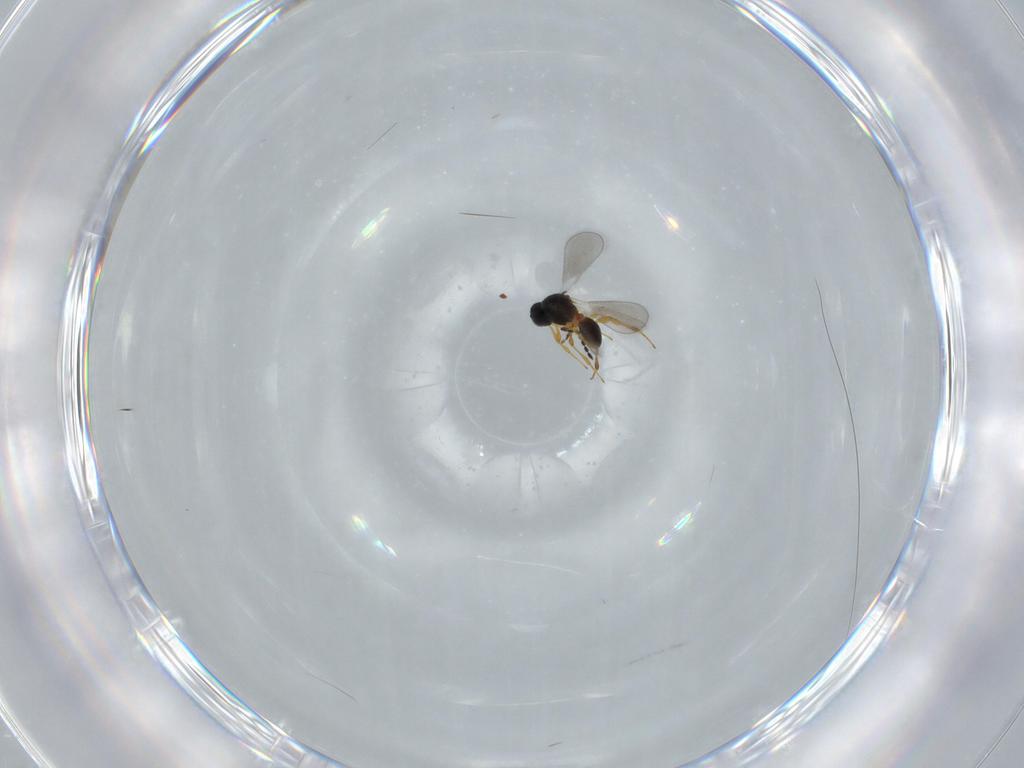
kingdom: Animalia
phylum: Arthropoda
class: Insecta
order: Hymenoptera
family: Platygastridae
